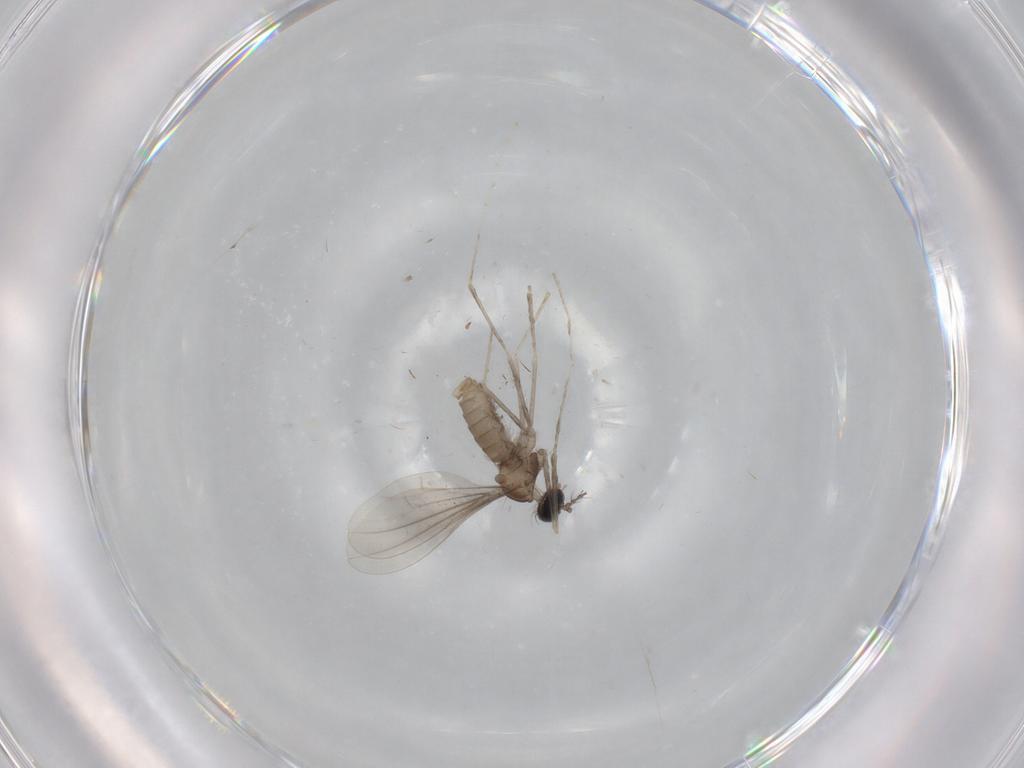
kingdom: Animalia
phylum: Arthropoda
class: Insecta
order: Diptera
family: Cecidomyiidae
